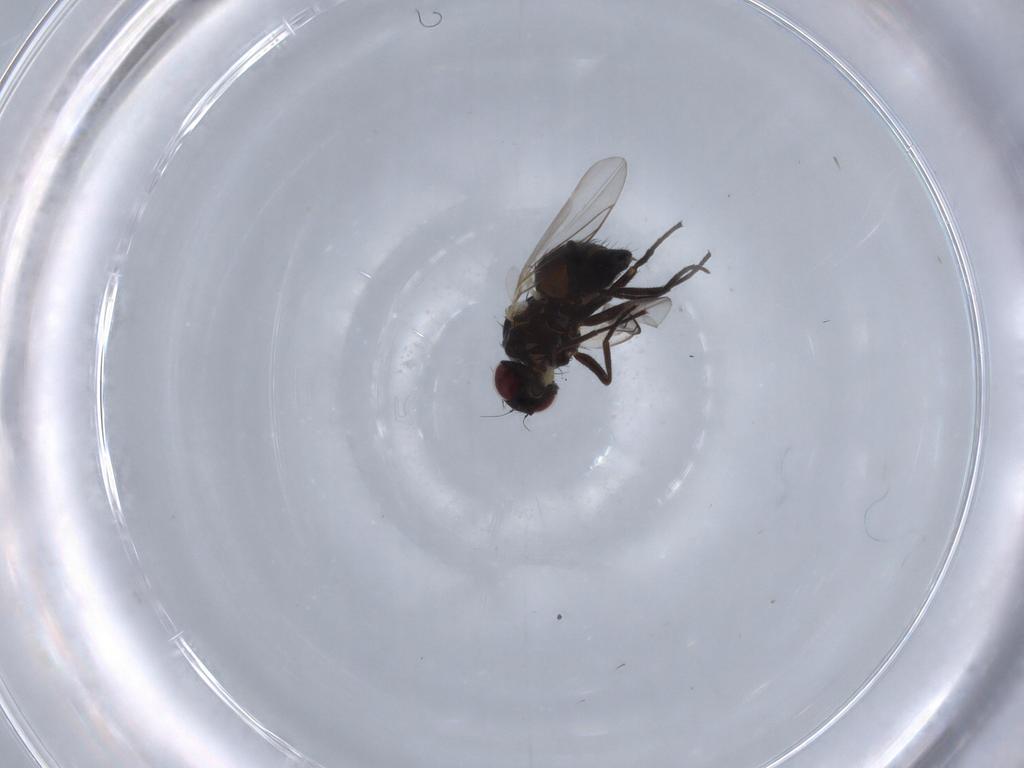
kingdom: Animalia
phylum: Arthropoda
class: Insecta
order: Diptera
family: Agromyzidae
